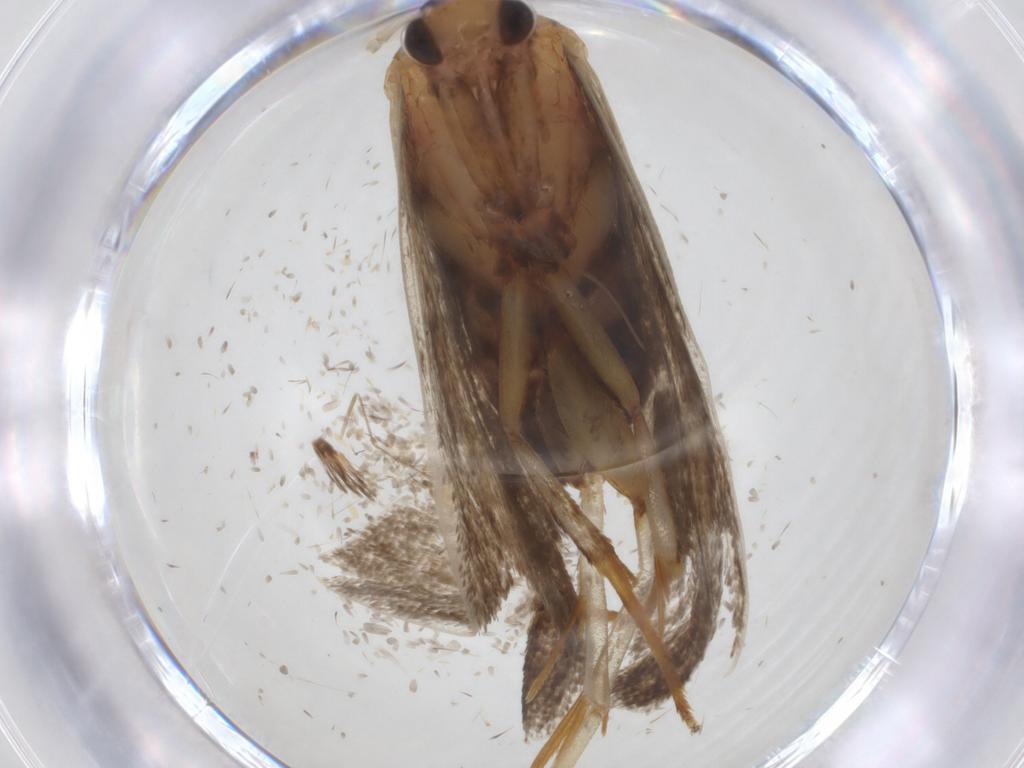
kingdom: Animalia
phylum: Arthropoda
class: Insecta
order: Lepidoptera
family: Lecithoceridae
